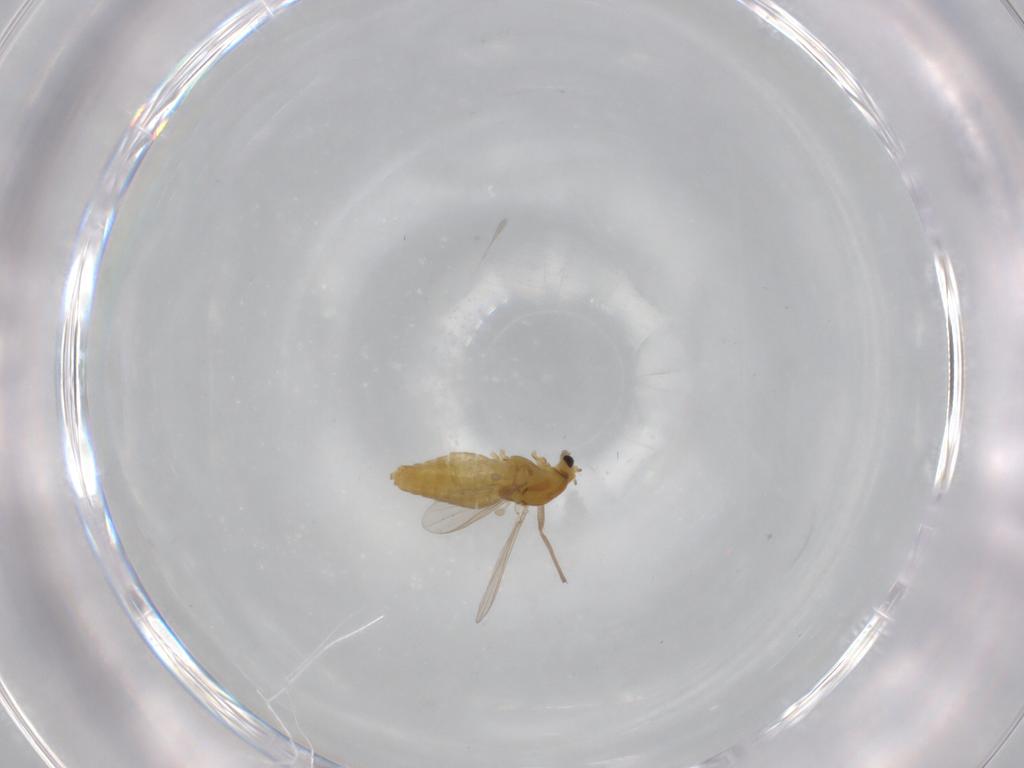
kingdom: Animalia
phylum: Arthropoda
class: Insecta
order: Diptera
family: Chironomidae
